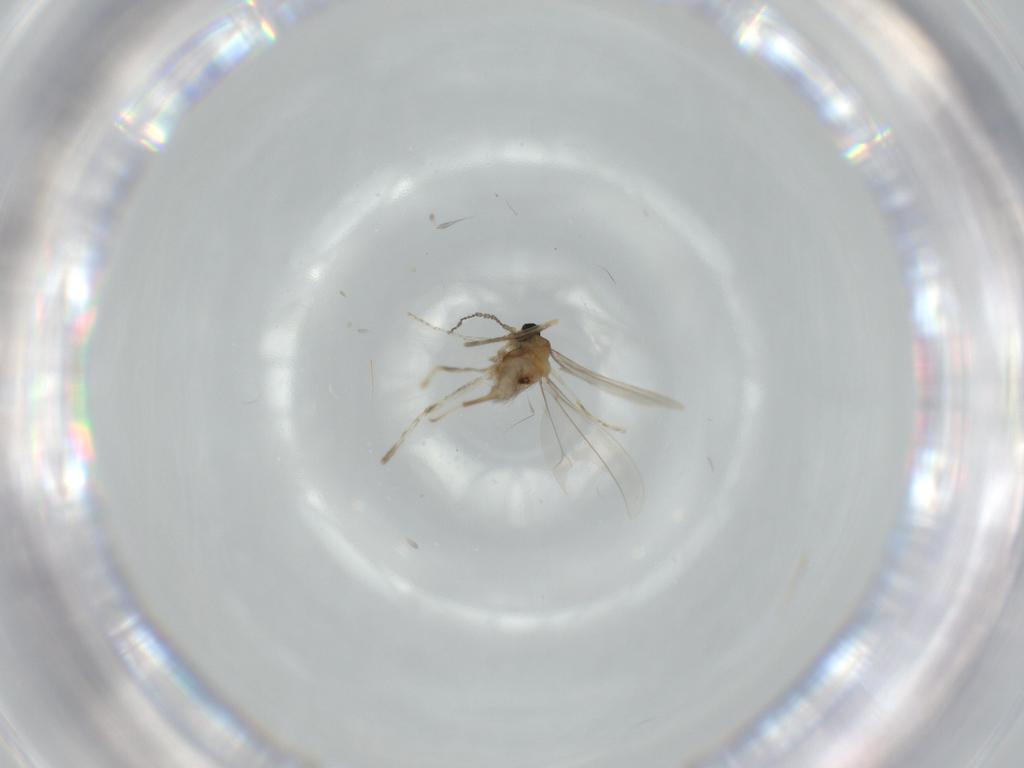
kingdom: Animalia
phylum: Arthropoda
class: Insecta
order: Diptera
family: Cecidomyiidae
